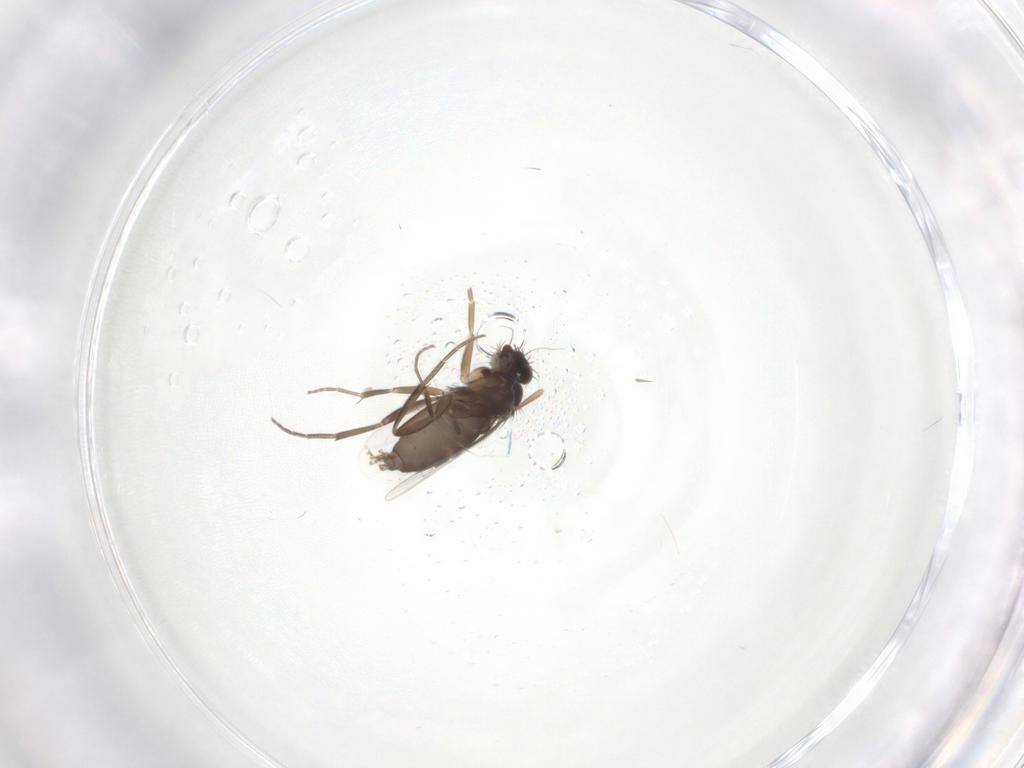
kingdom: Animalia
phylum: Arthropoda
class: Insecta
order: Diptera
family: Phoridae
